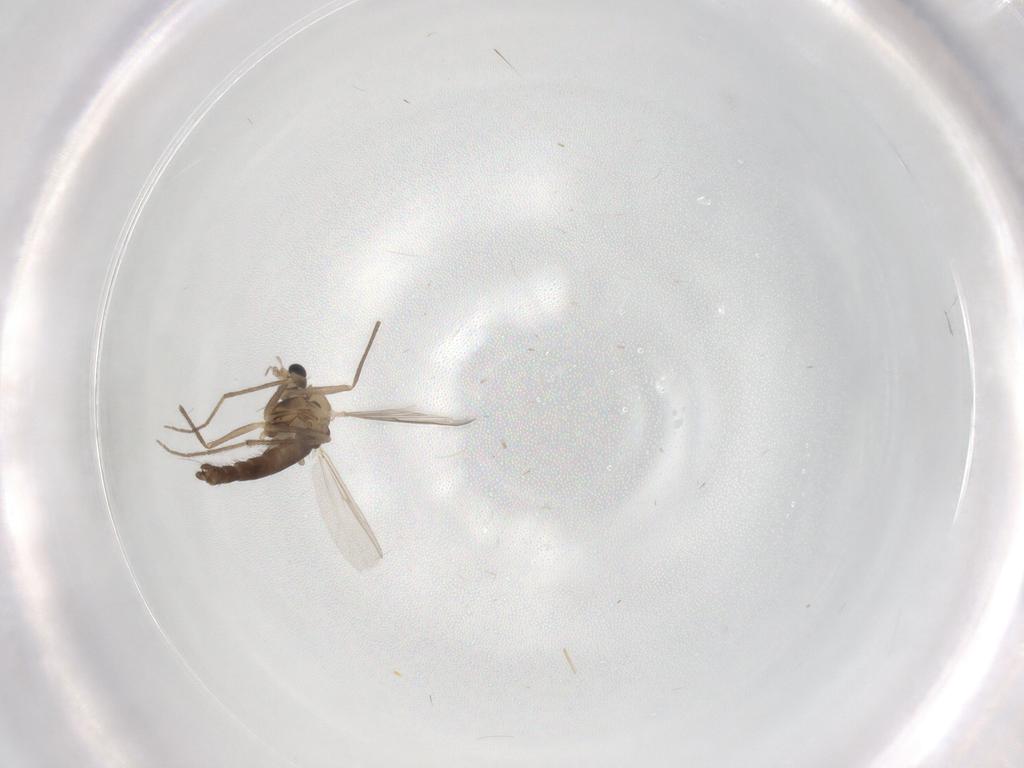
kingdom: Animalia
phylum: Arthropoda
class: Insecta
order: Diptera
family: Chironomidae
